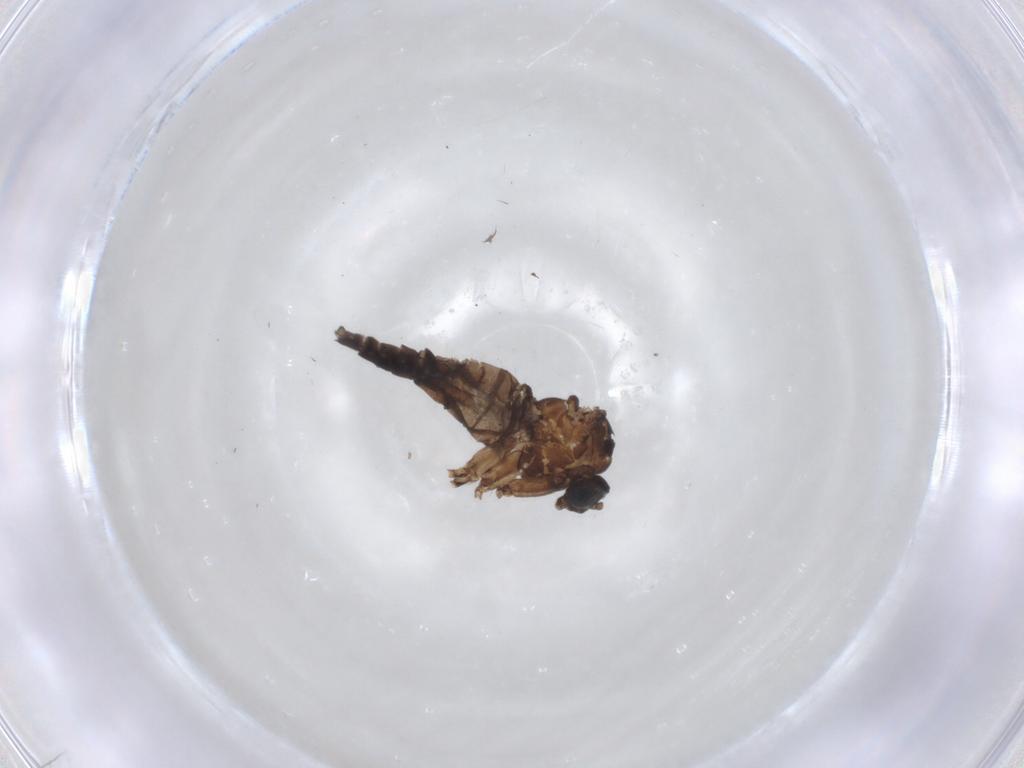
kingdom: Animalia
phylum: Arthropoda
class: Insecta
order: Diptera
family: Sciaridae
